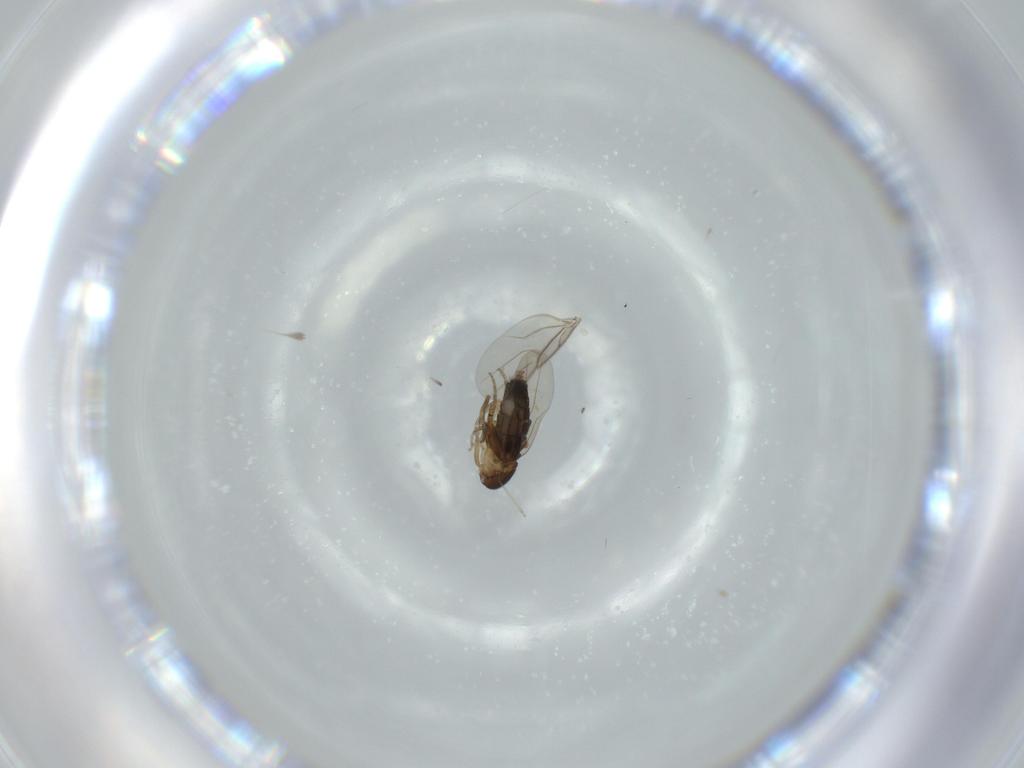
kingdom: Animalia
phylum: Arthropoda
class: Insecta
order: Diptera
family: Phoridae
